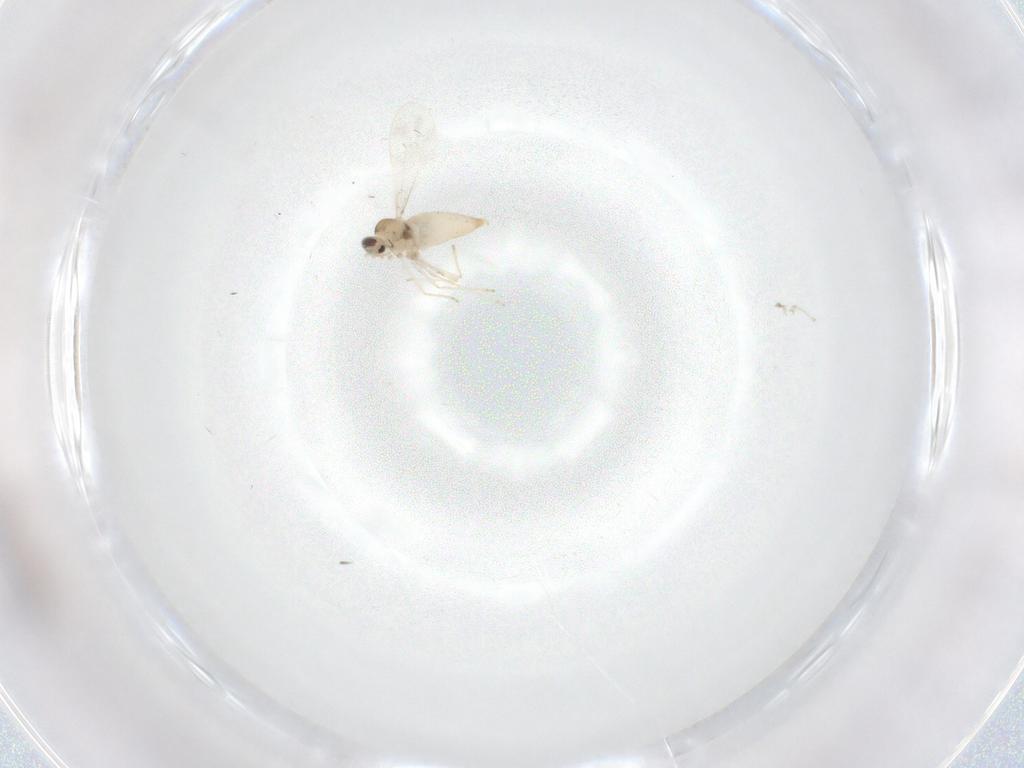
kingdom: Animalia
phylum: Arthropoda
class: Insecta
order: Diptera
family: Cecidomyiidae
